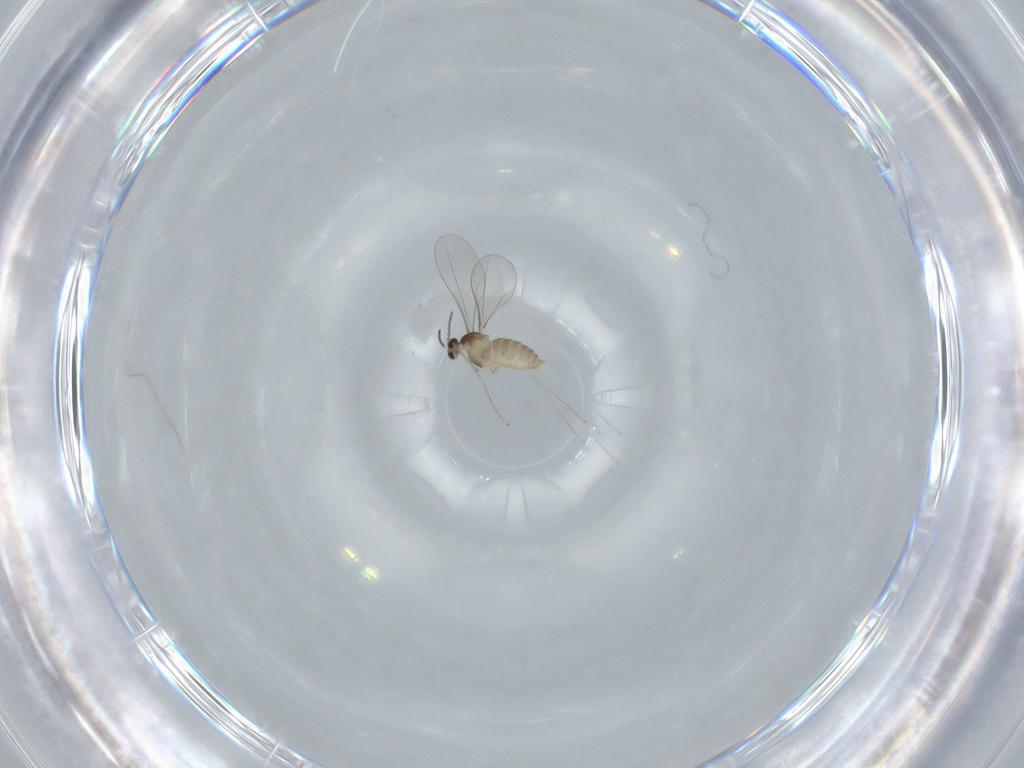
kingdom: Animalia
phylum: Arthropoda
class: Insecta
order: Diptera
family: Cecidomyiidae
